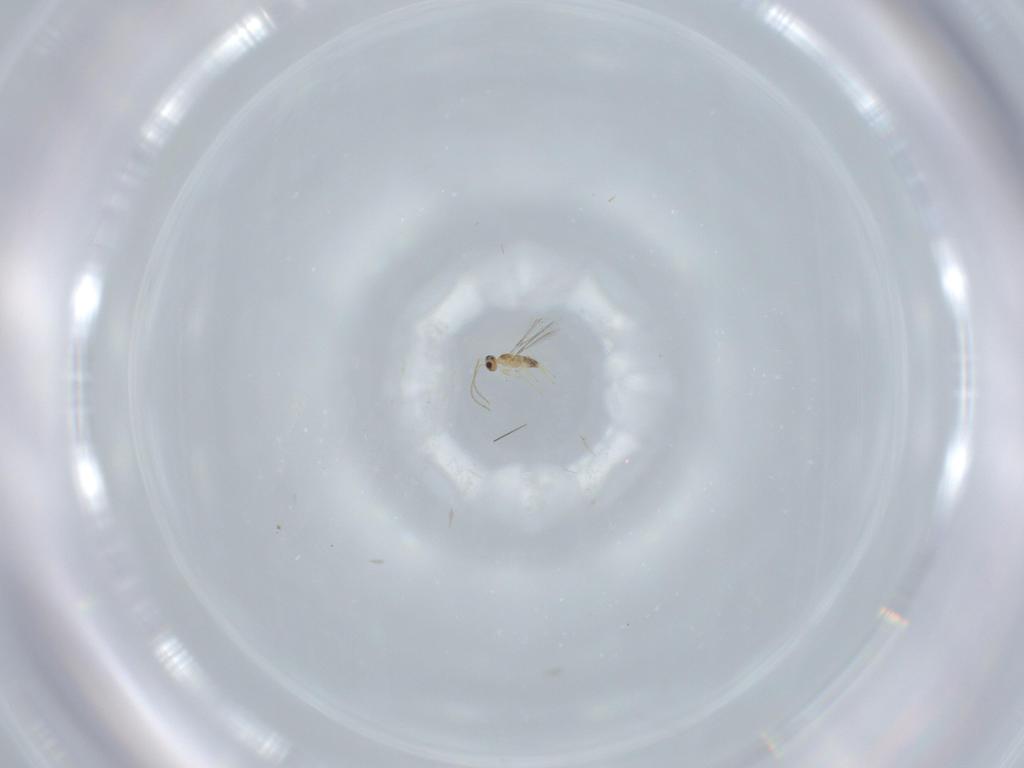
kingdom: Animalia
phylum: Arthropoda
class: Insecta
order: Diptera
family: Cecidomyiidae
